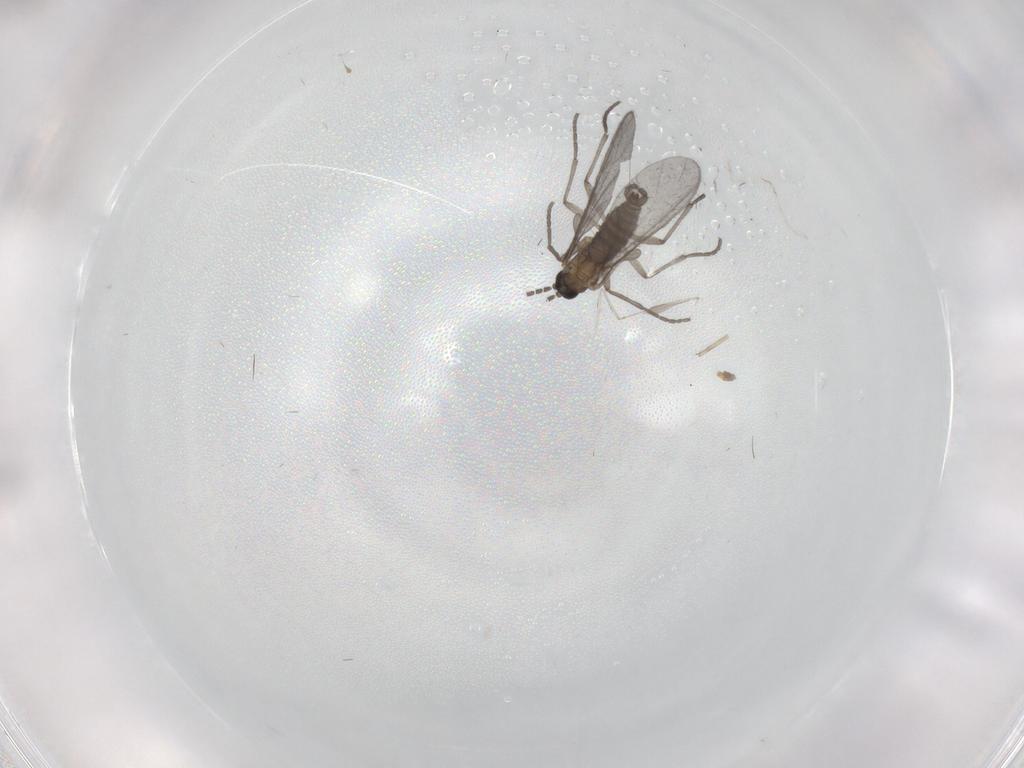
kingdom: Animalia
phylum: Arthropoda
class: Insecta
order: Diptera
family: Sciaridae
